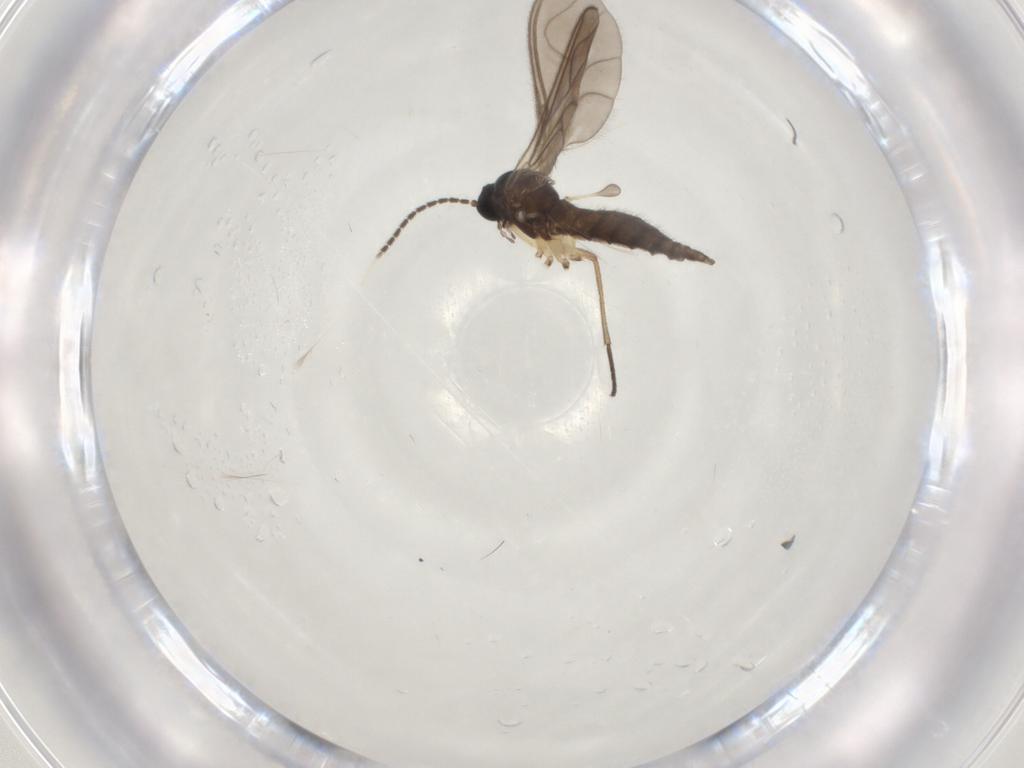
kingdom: Animalia
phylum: Arthropoda
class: Insecta
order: Diptera
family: Sciaridae
